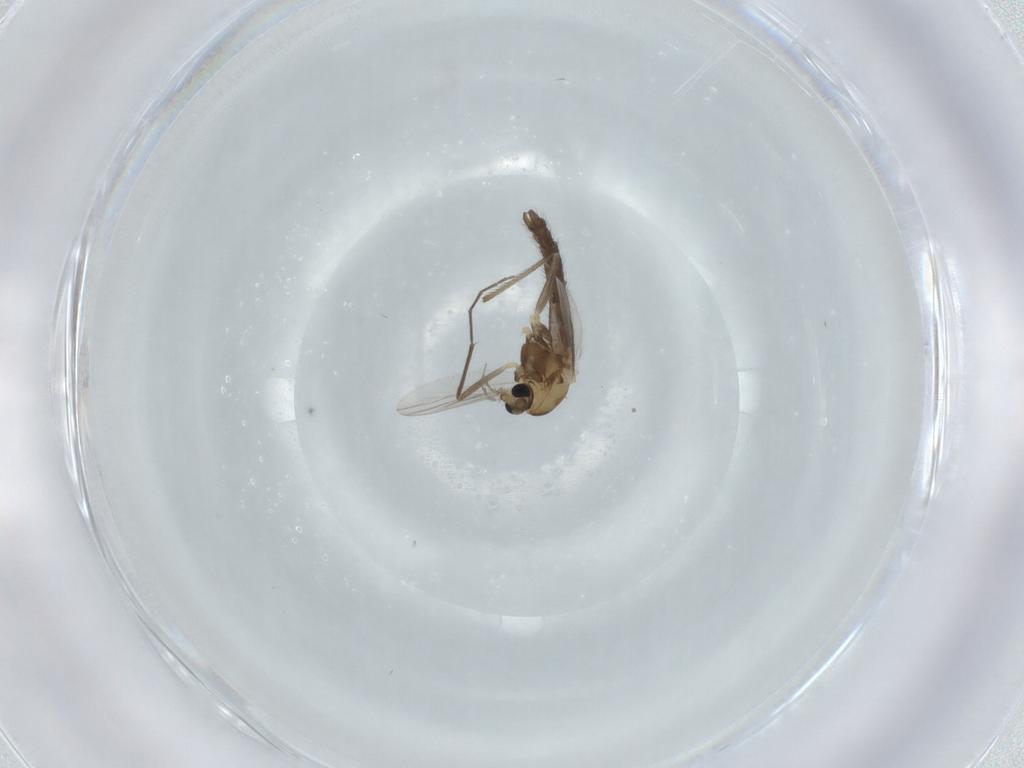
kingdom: Animalia
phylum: Arthropoda
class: Insecta
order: Diptera
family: Chironomidae
